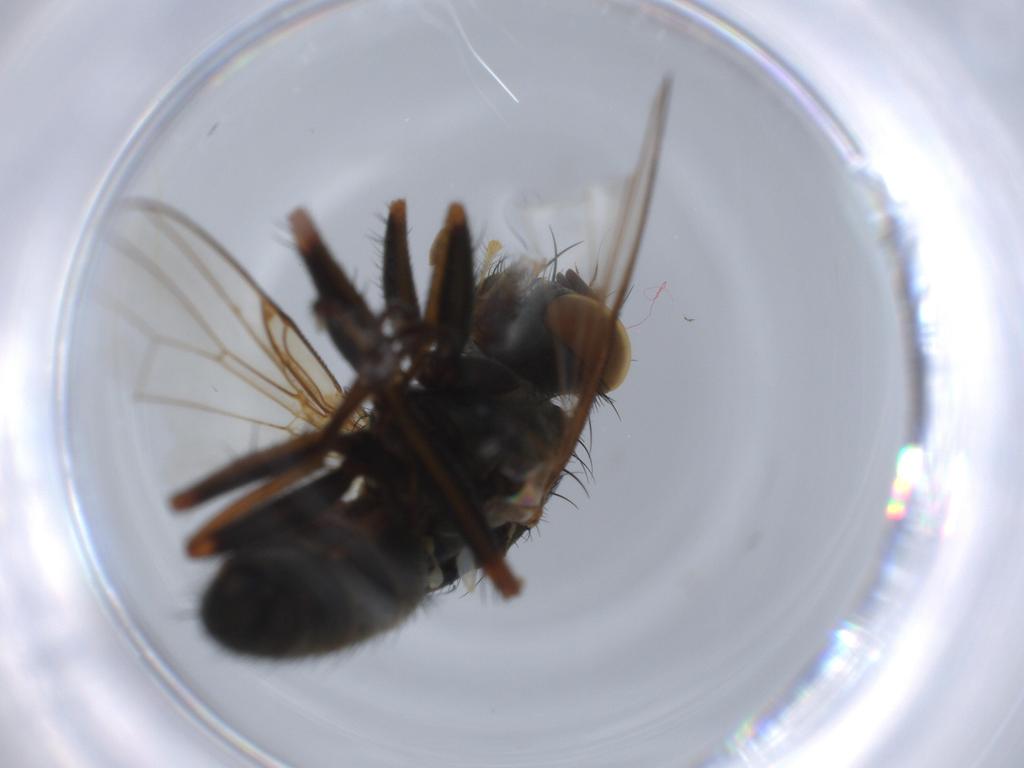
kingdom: Animalia
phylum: Arthropoda
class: Insecta
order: Diptera
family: Muscidae
